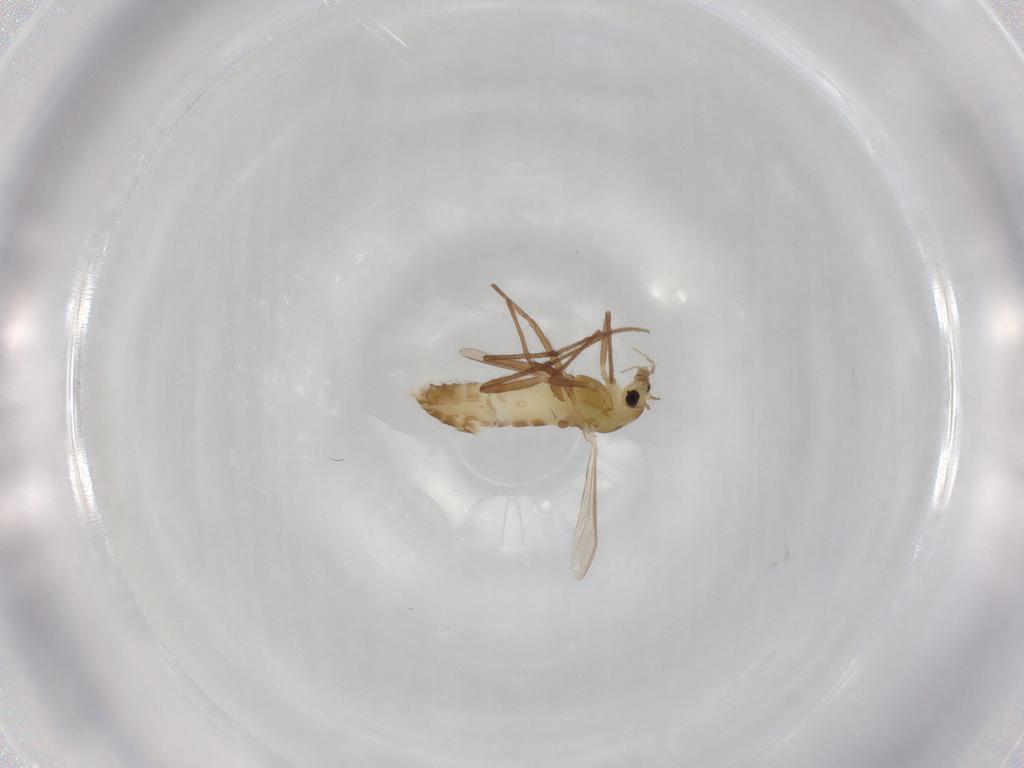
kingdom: Animalia
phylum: Arthropoda
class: Insecta
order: Diptera
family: Chironomidae
